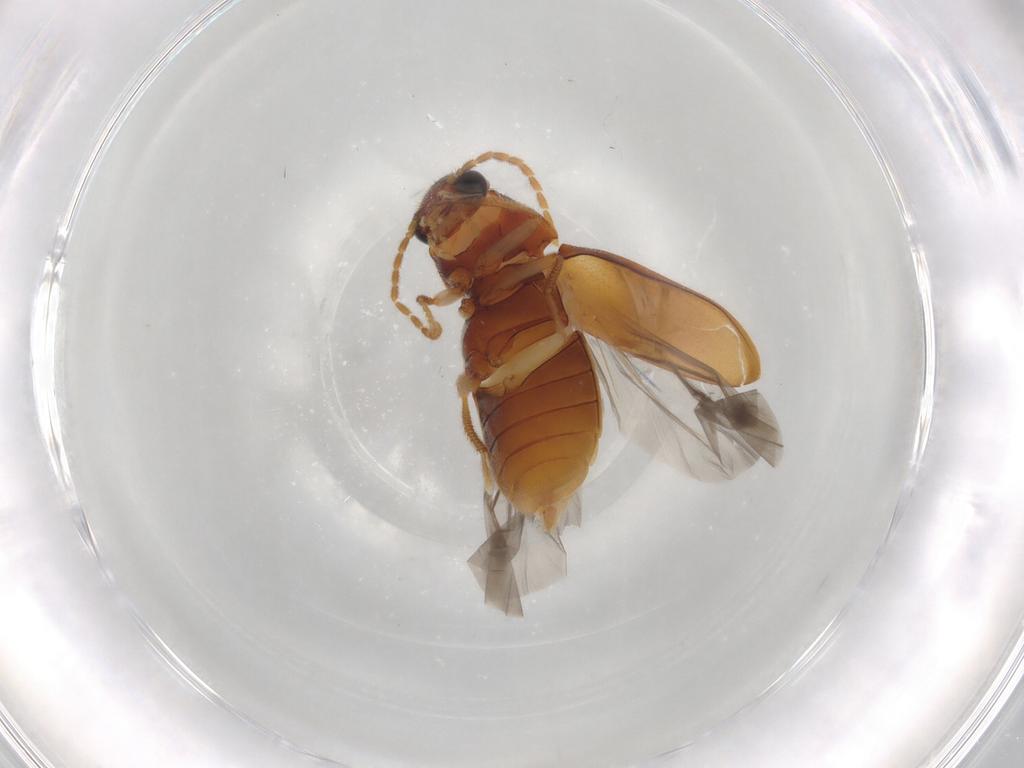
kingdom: Animalia
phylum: Arthropoda
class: Insecta
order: Coleoptera
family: Ptilodactylidae
